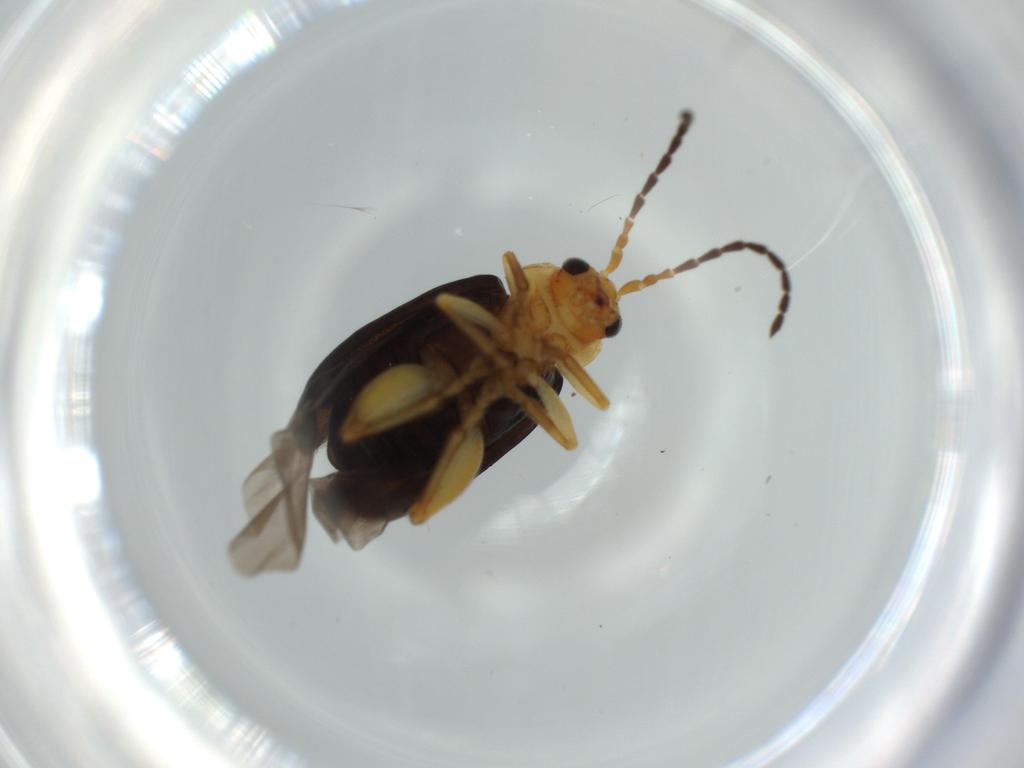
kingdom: Animalia
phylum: Arthropoda
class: Insecta
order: Coleoptera
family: Chrysomelidae
